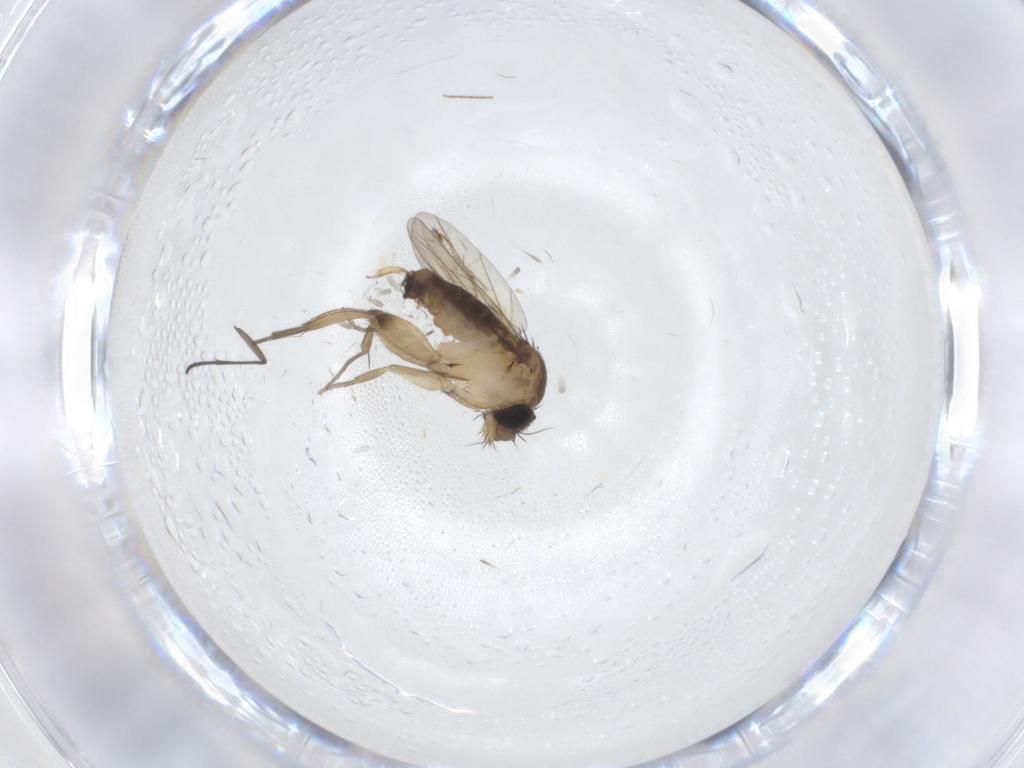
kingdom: Animalia
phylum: Arthropoda
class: Insecta
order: Diptera
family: Phoridae
